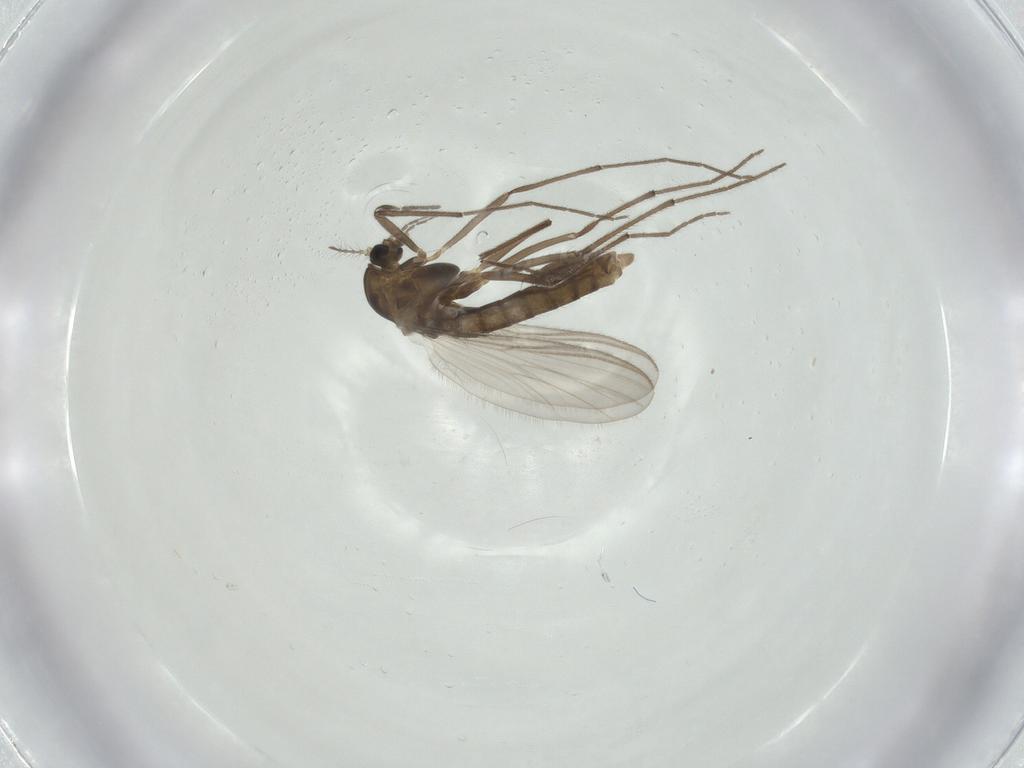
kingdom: Animalia
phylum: Arthropoda
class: Insecta
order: Diptera
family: Chironomidae
